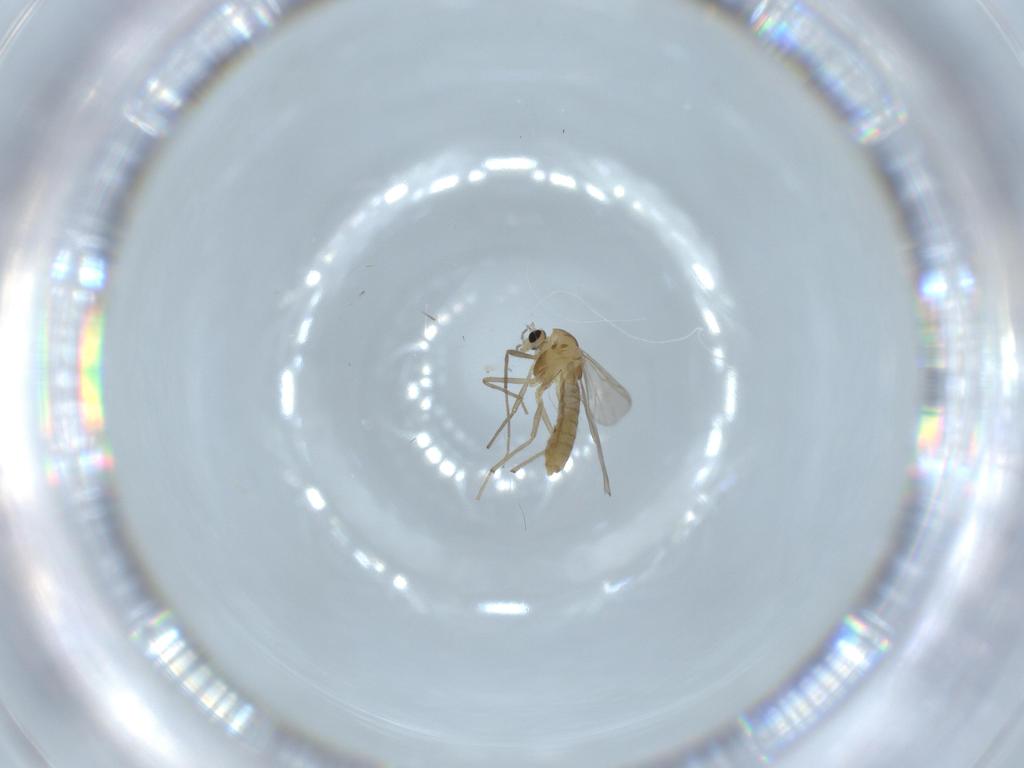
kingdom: Animalia
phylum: Arthropoda
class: Insecta
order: Diptera
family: Chironomidae
